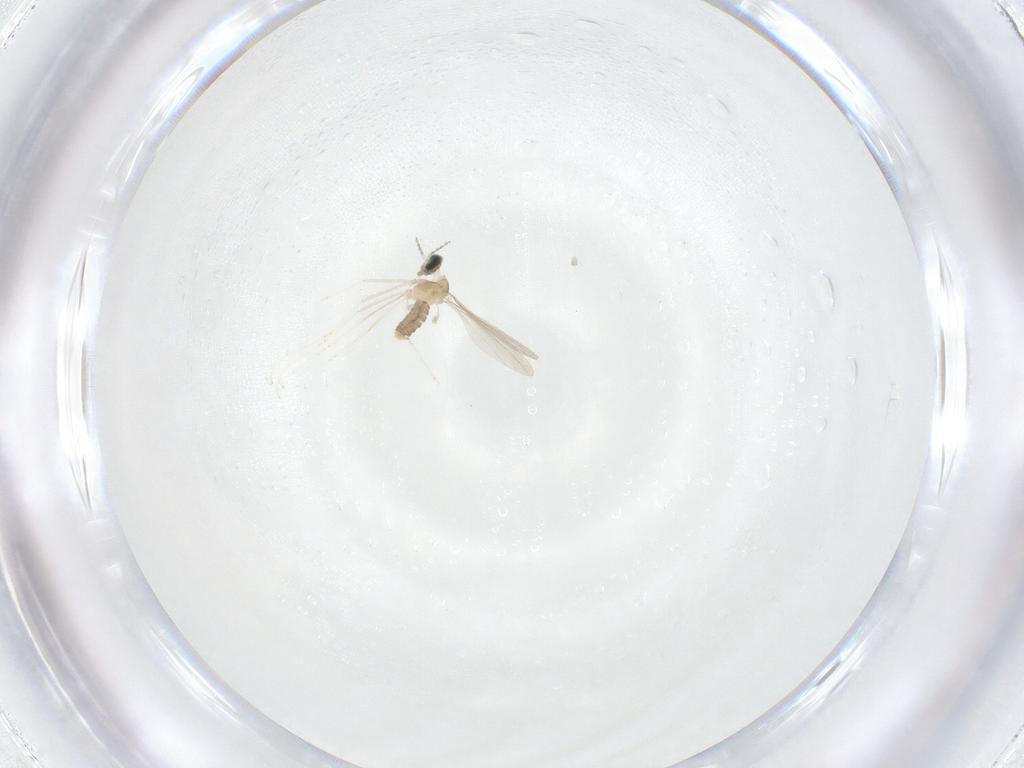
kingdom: Animalia
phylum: Arthropoda
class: Insecta
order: Diptera
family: Cecidomyiidae
